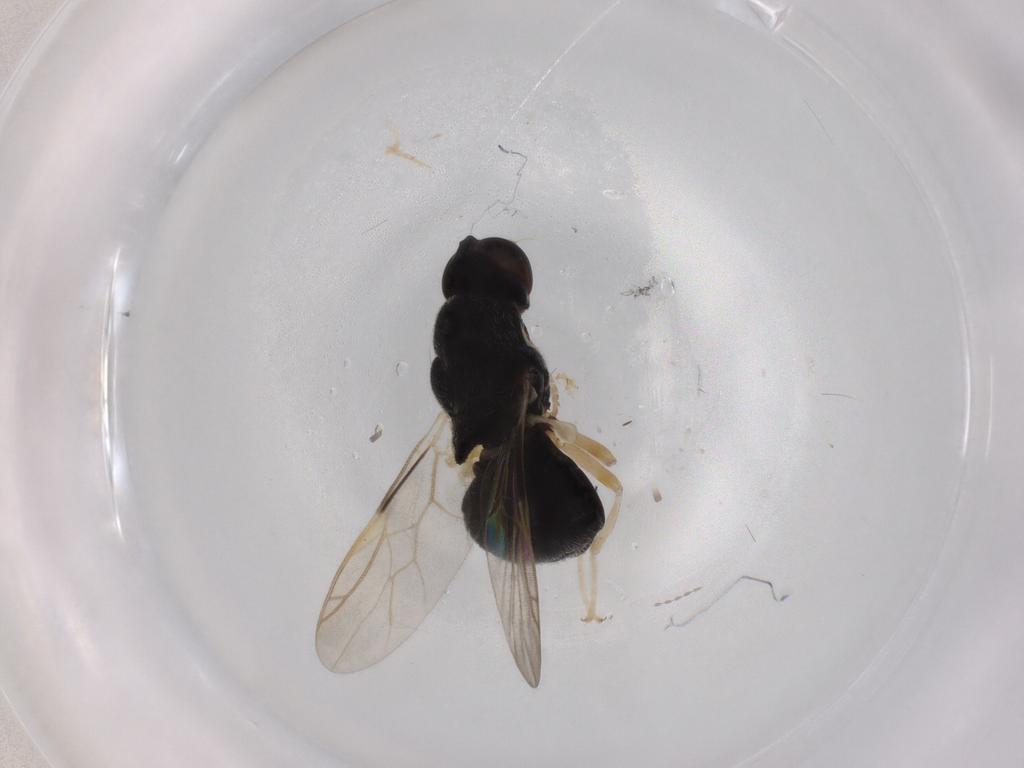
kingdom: Animalia
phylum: Arthropoda
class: Insecta
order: Diptera
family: Stratiomyidae
